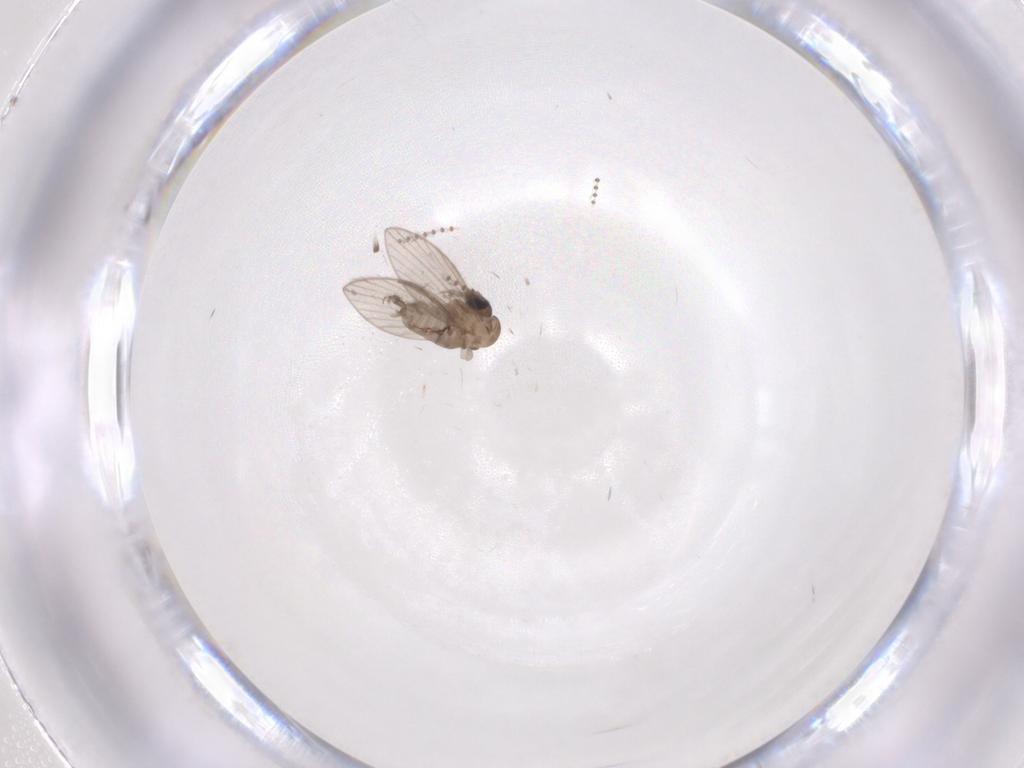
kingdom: Animalia
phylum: Arthropoda
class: Insecta
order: Diptera
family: Psychodidae
